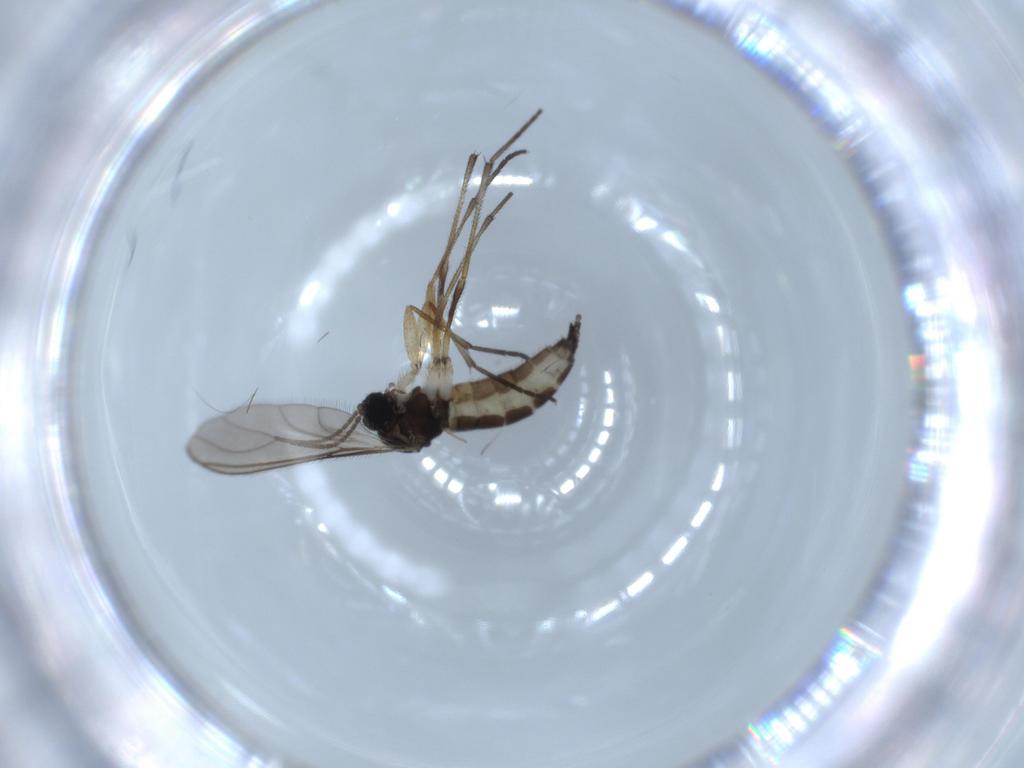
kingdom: Animalia
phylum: Arthropoda
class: Insecta
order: Diptera
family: Sciaridae
